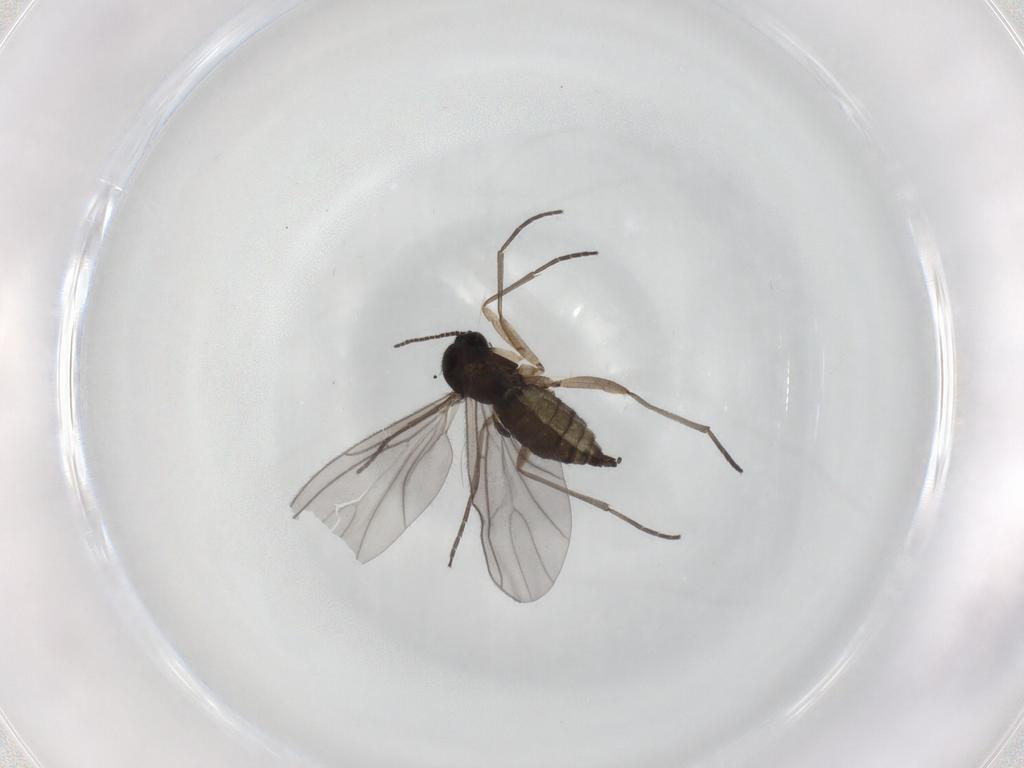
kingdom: Animalia
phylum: Arthropoda
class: Insecta
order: Diptera
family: Sciaridae
